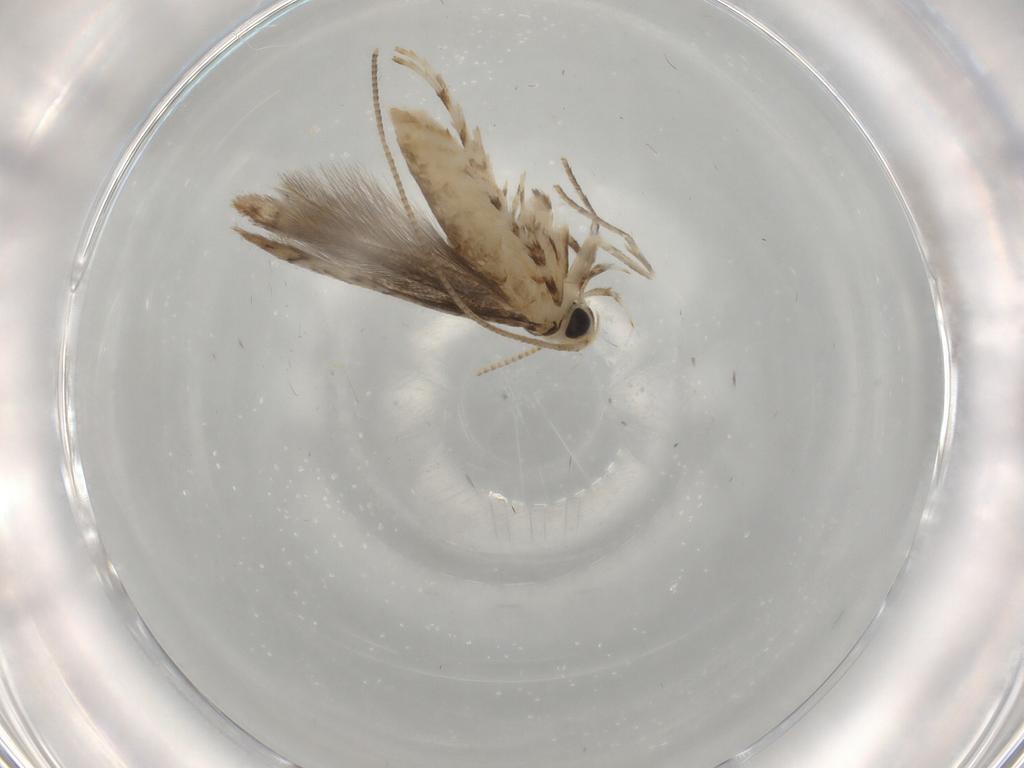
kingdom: Animalia
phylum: Arthropoda
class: Insecta
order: Lepidoptera
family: Gracillariidae
